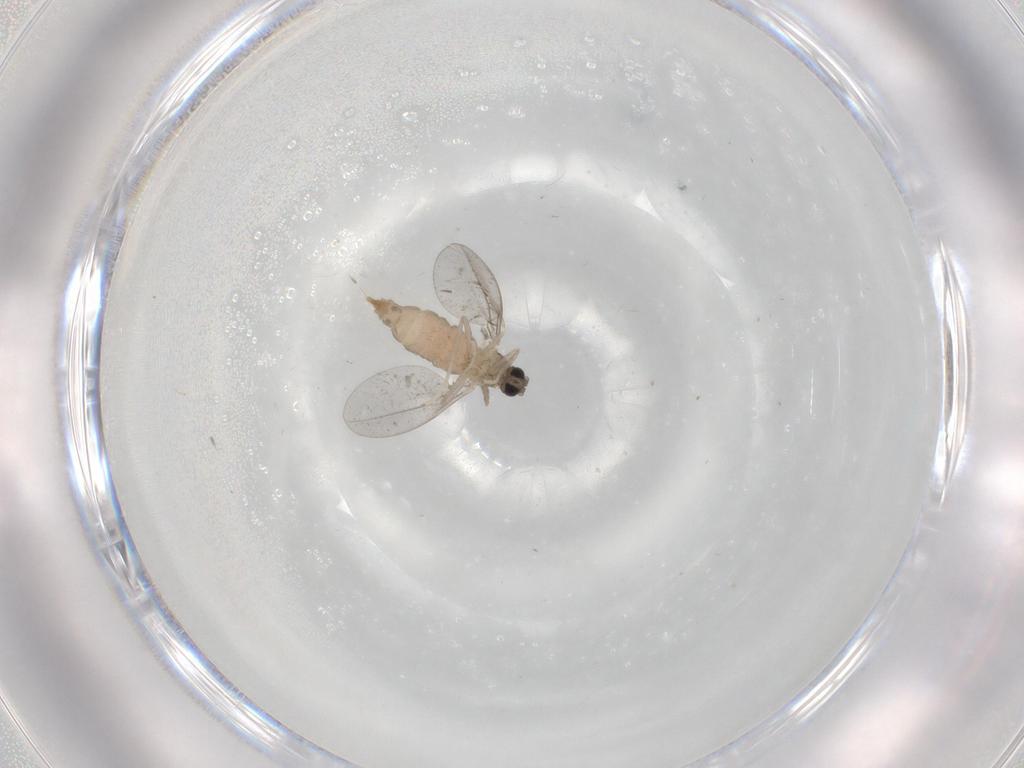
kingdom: Animalia
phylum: Arthropoda
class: Insecta
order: Diptera
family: Cecidomyiidae
